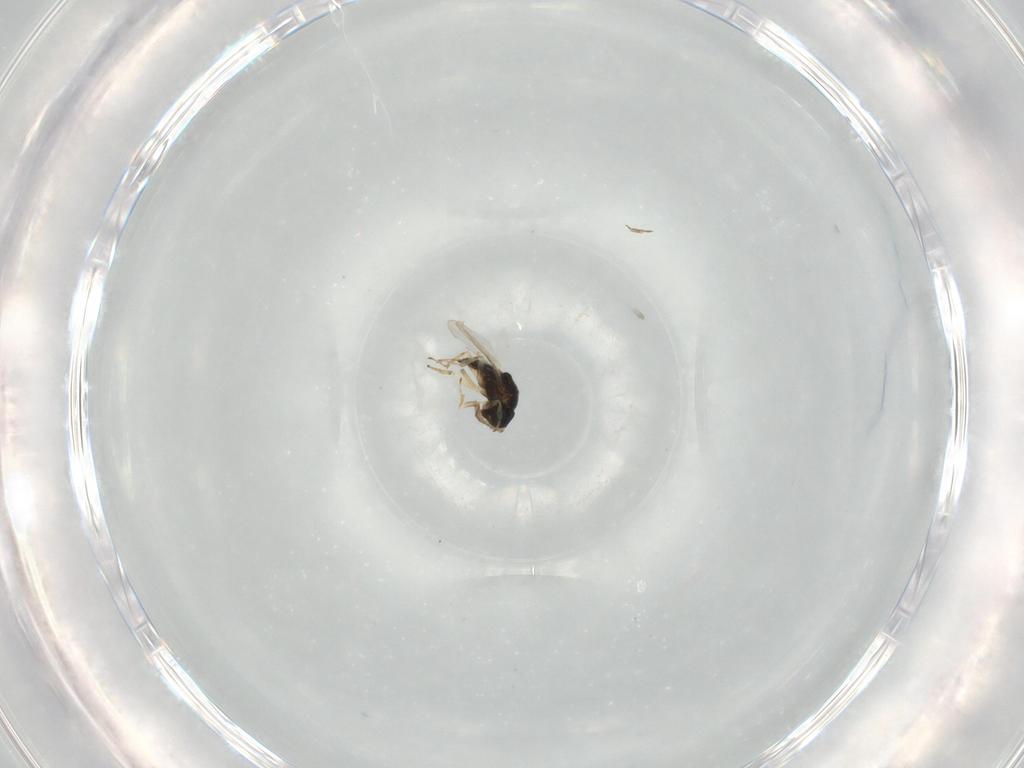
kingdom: Animalia
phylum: Arthropoda
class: Insecta
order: Hymenoptera
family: Encyrtidae
